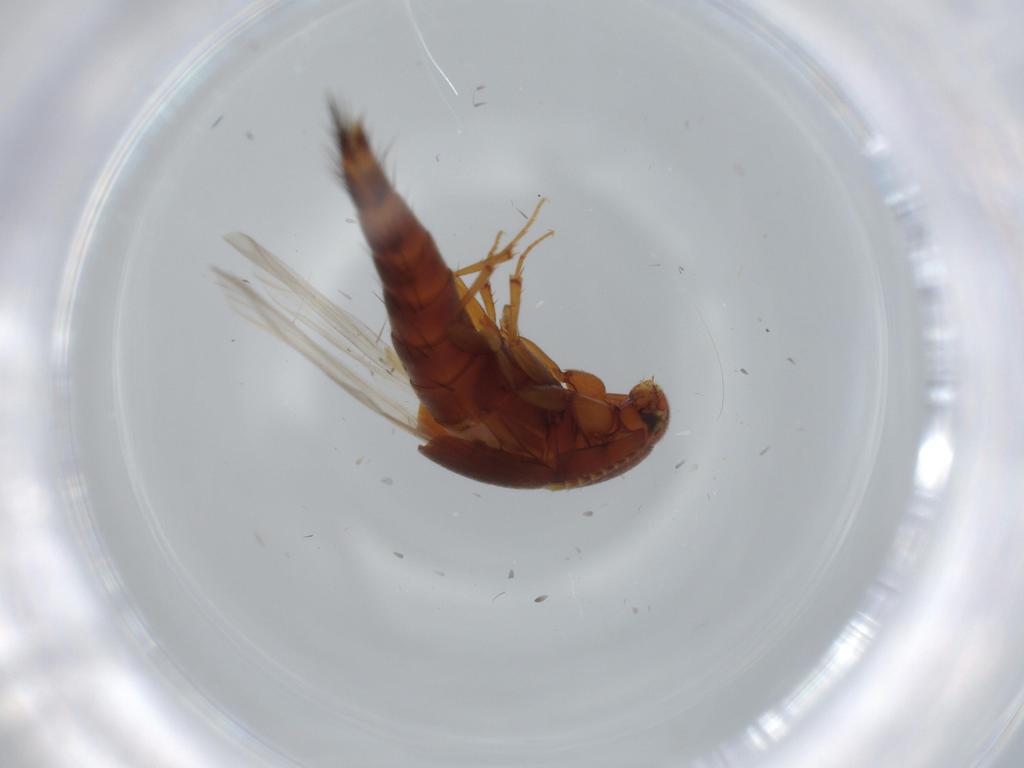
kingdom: Animalia
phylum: Arthropoda
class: Insecta
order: Coleoptera
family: Staphylinidae
